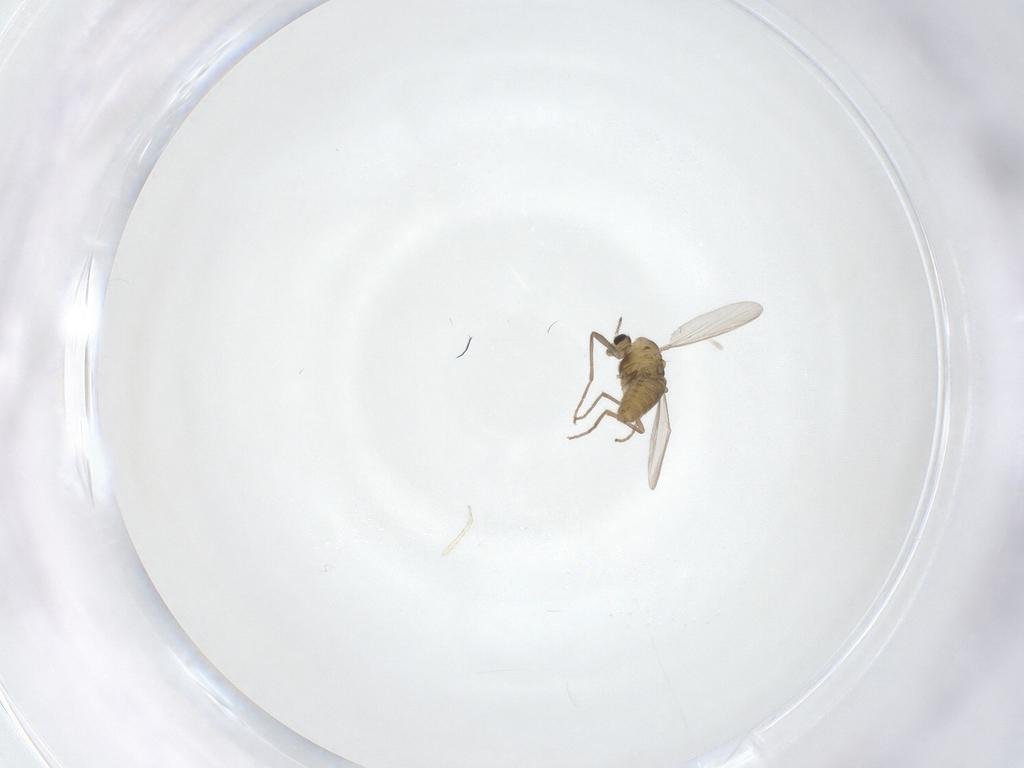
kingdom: Animalia
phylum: Arthropoda
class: Insecta
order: Diptera
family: Chironomidae
